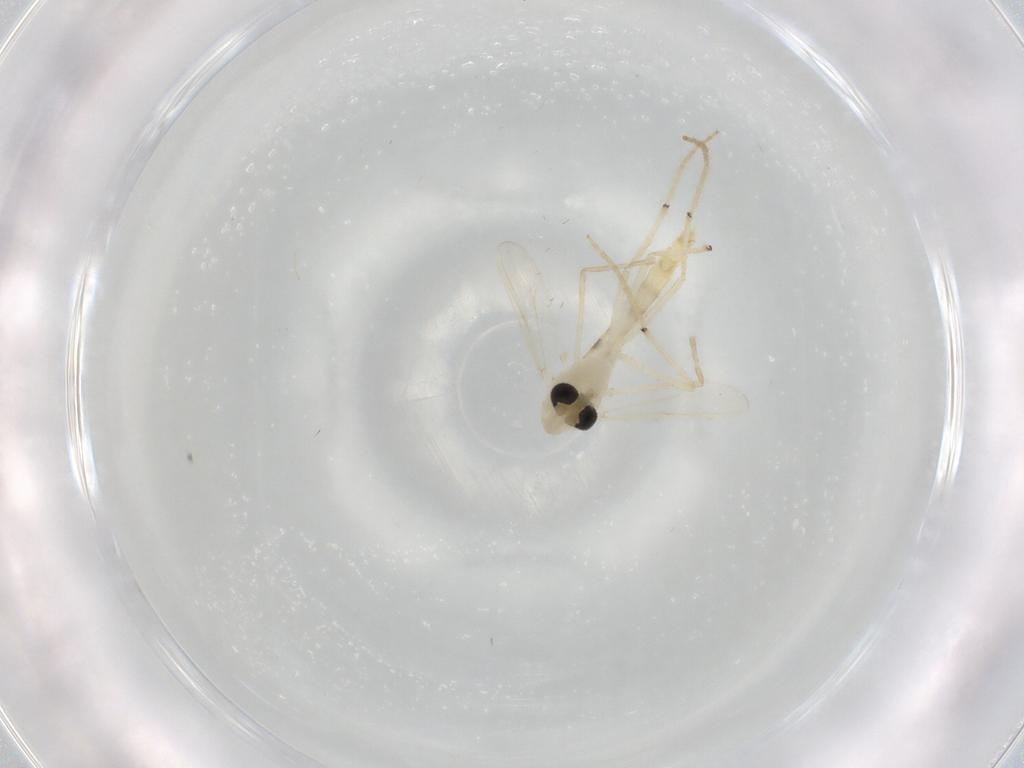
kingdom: Animalia
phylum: Arthropoda
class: Insecta
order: Diptera
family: Chironomidae
